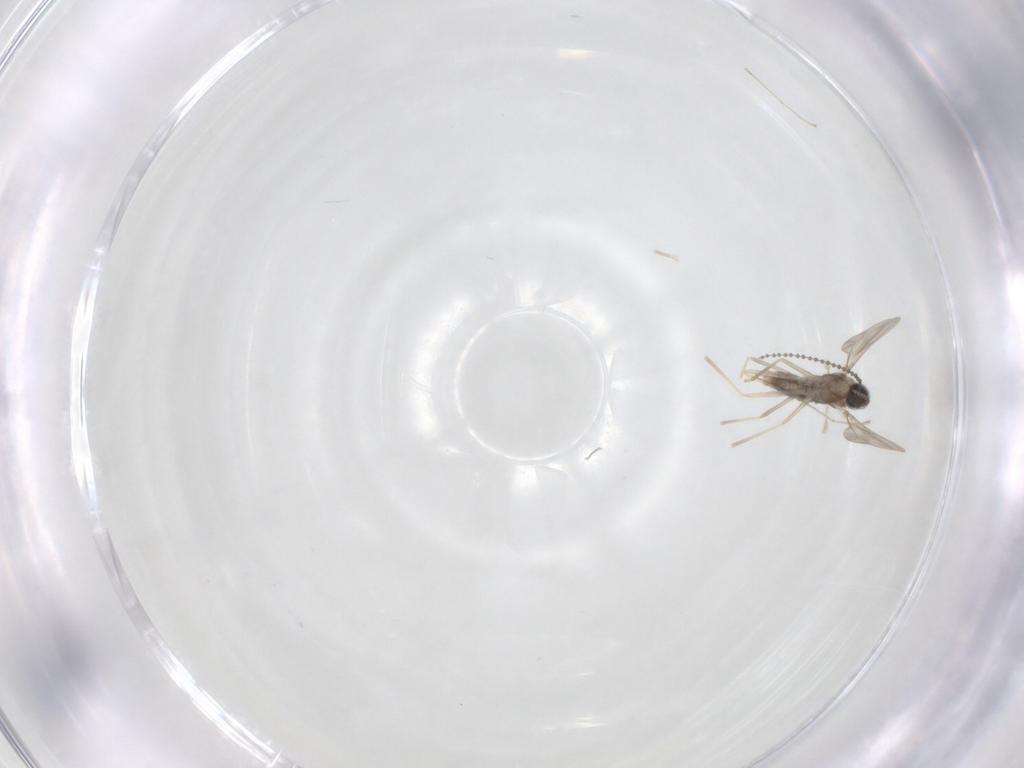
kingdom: Animalia
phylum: Arthropoda
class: Insecta
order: Diptera
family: Cecidomyiidae
